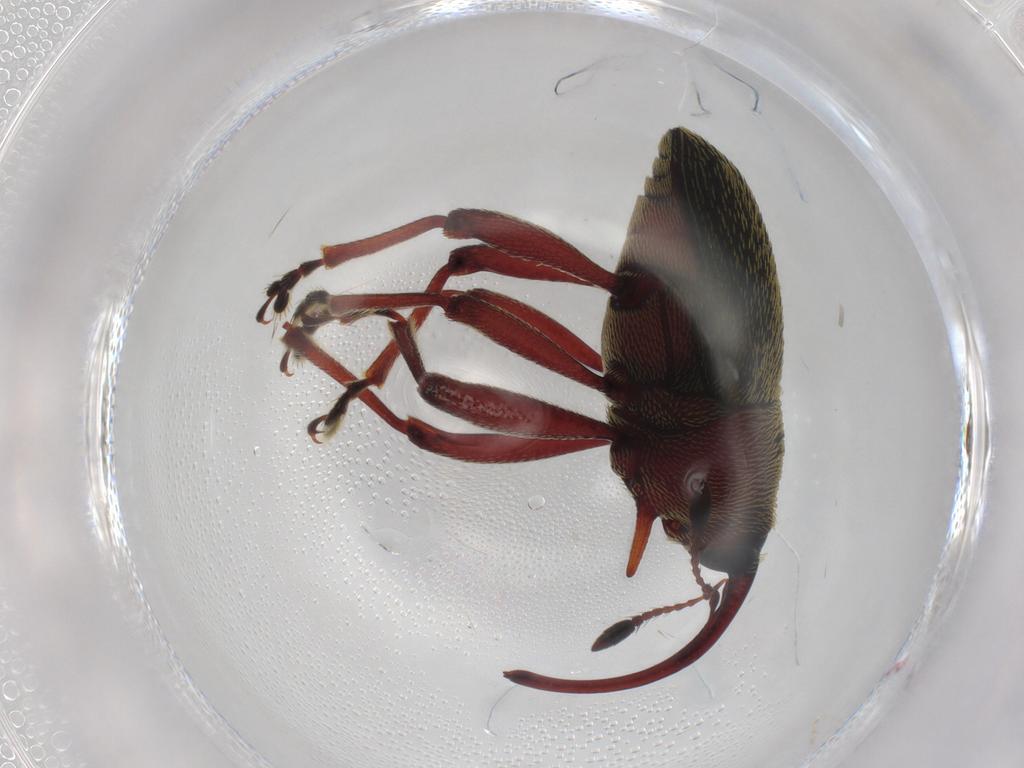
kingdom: Animalia
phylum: Arthropoda
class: Insecta
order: Coleoptera
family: Curculionidae
